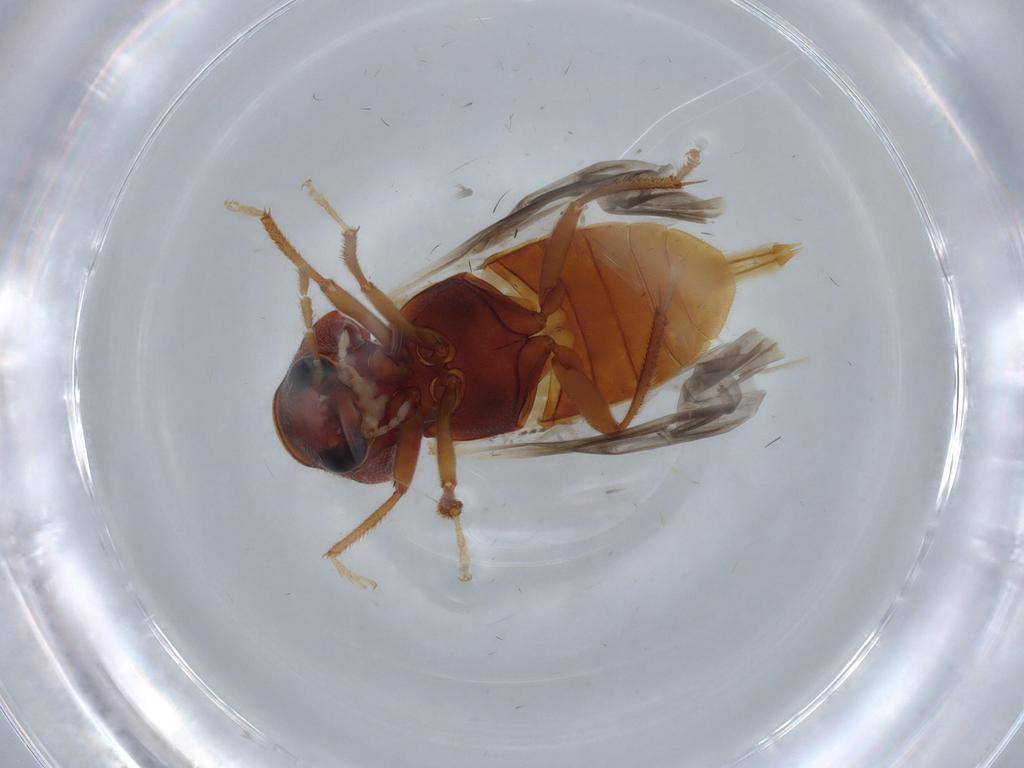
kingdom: Animalia
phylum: Arthropoda
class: Insecta
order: Coleoptera
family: Ptilodactylidae
